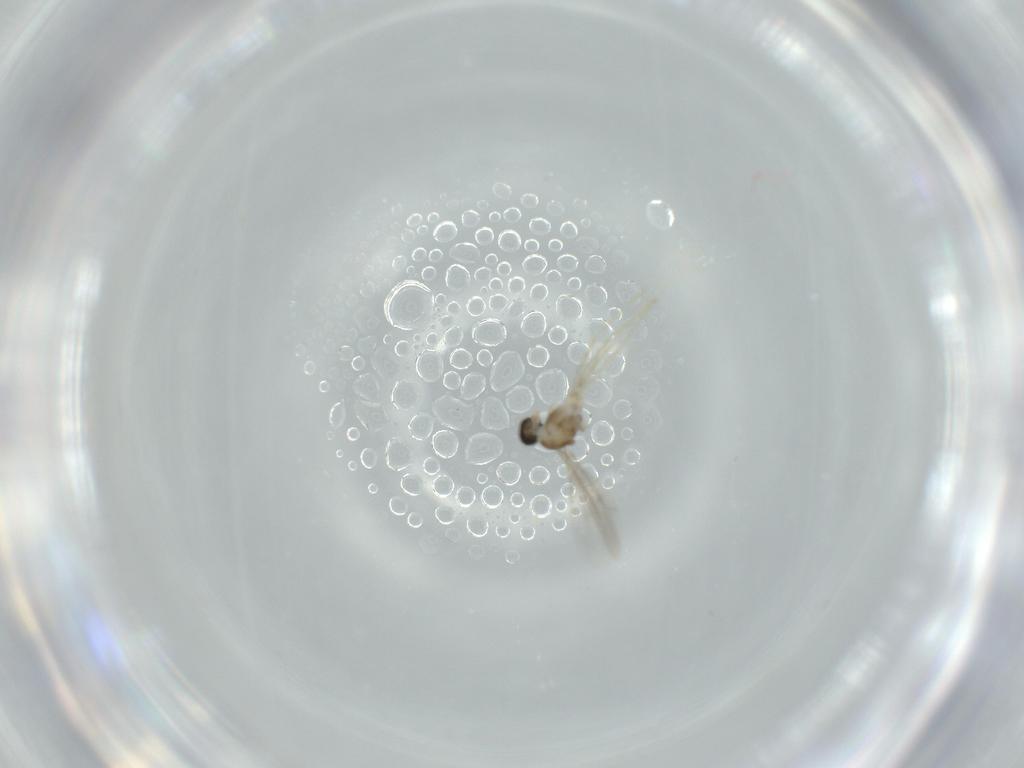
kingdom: Animalia
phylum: Arthropoda
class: Insecta
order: Diptera
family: Cecidomyiidae
